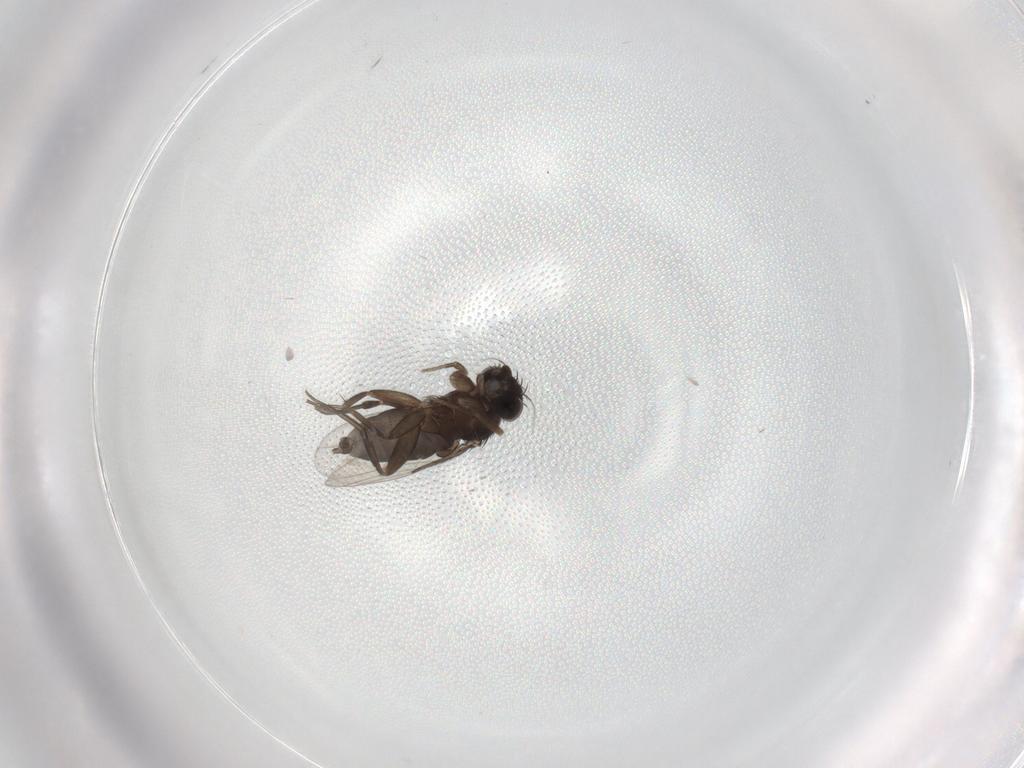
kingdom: Animalia
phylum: Arthropoda
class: Insecta
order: Diptera
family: Phoridae
